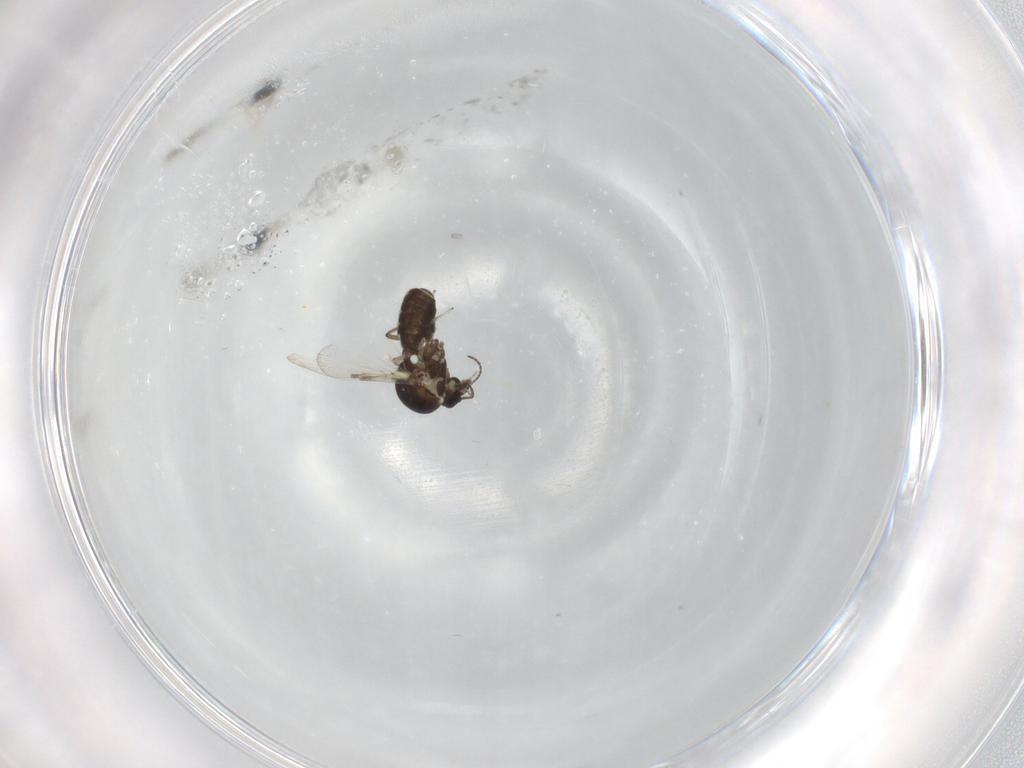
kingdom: Animalia
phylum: Arthropoda
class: Insecta
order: Diptera
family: Ceratopogonidae
